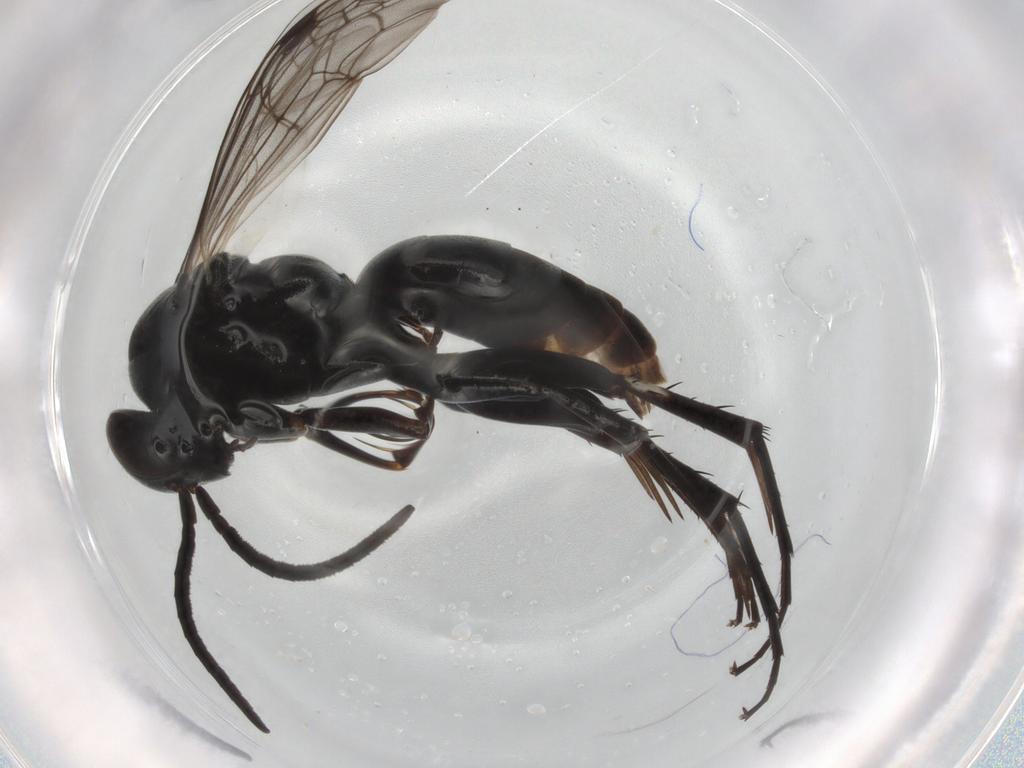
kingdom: Animalia
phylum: Arthropoda
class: Insecta
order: Hymenoptera
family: Pompilidae
